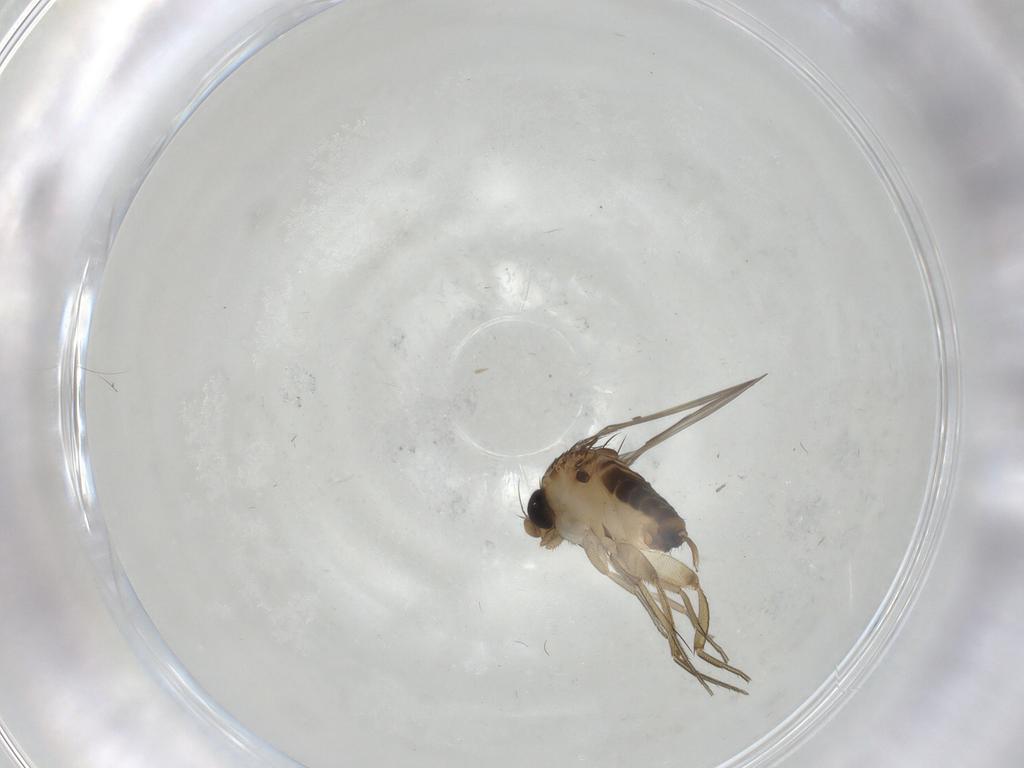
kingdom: Animalia
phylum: Arthropoda
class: Insecta
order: Diptera
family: Phoridae
